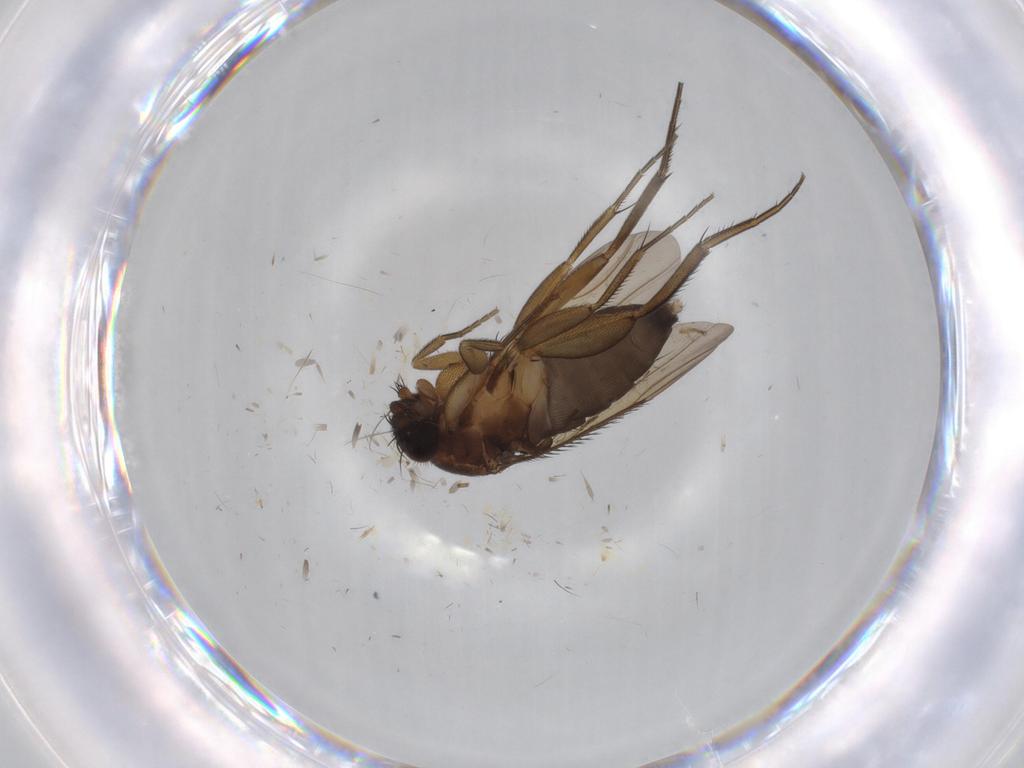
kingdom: Animalia
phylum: Arthropoda
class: Insecta
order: Diptera
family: Phoridae
